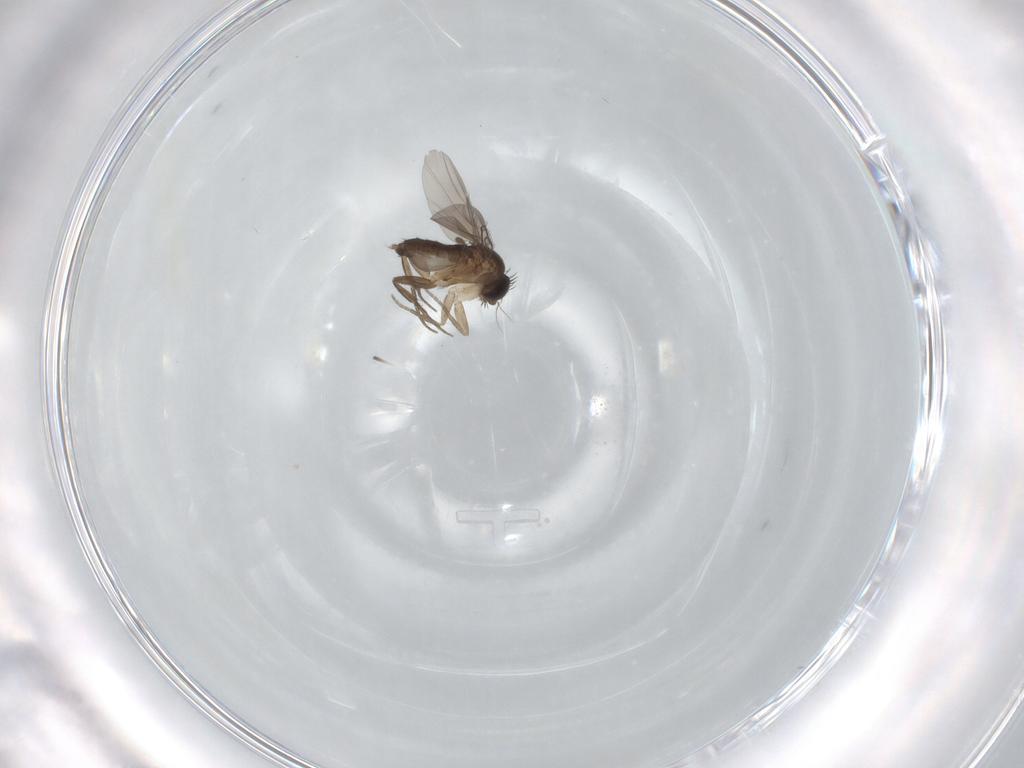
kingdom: Animalia
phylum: Arthropoda
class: Insecta
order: Diptera
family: Phoridae
